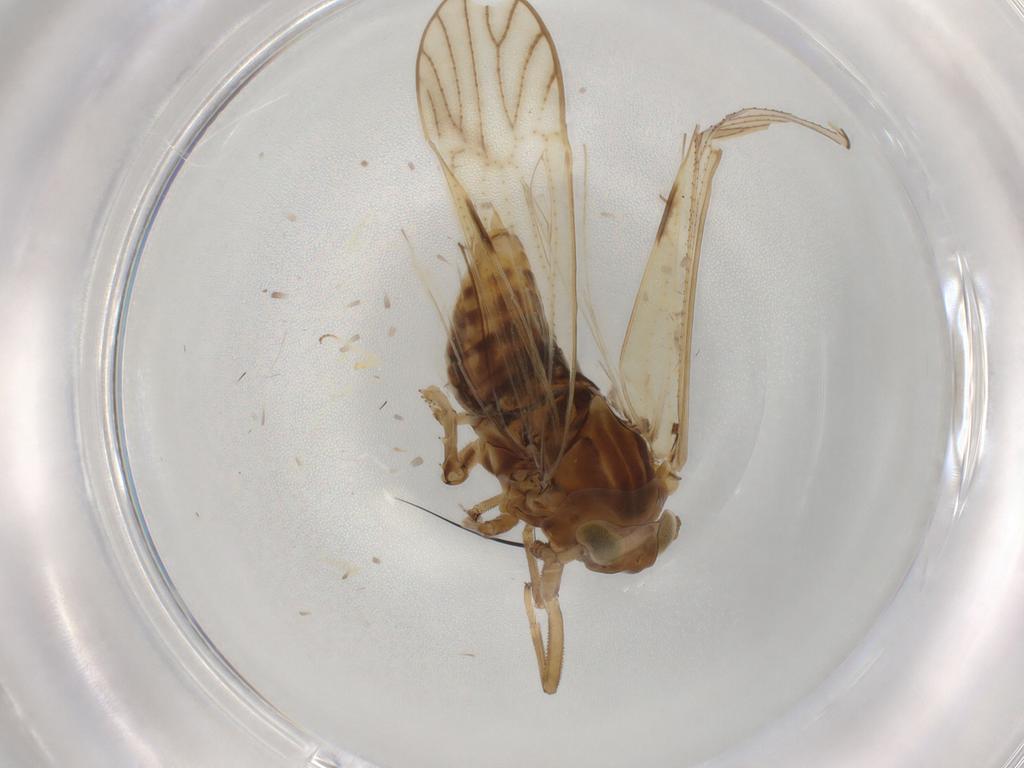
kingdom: Animalia
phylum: Arthropoda
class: Insecta
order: Hemiptera
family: Delphacidae
